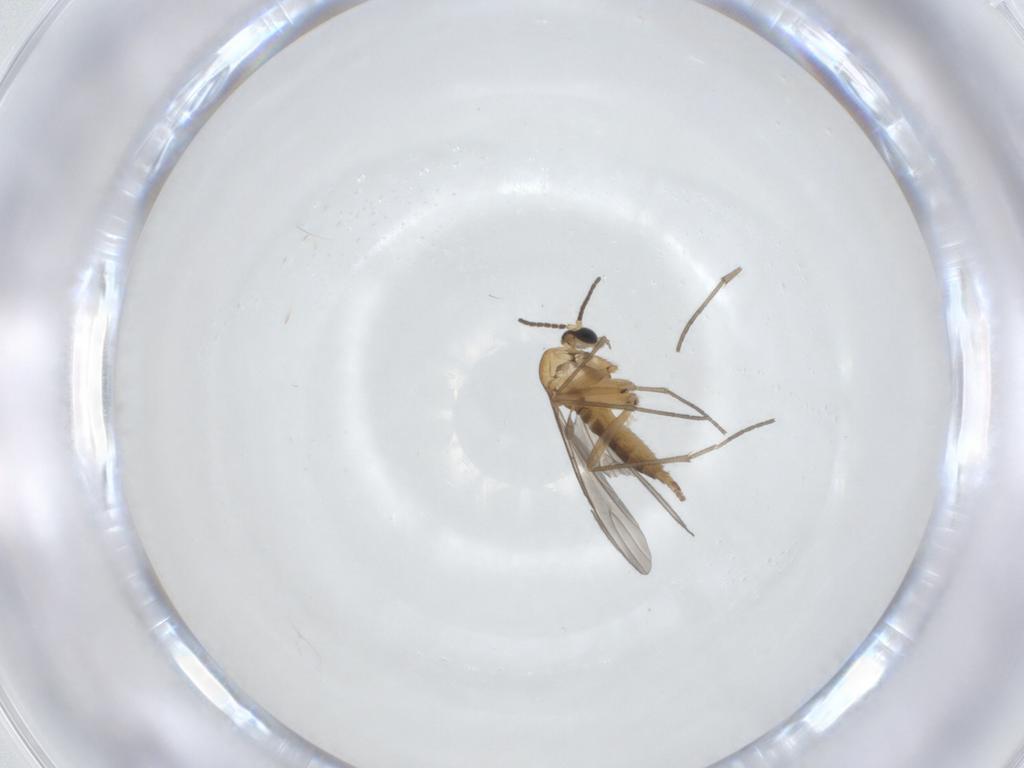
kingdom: Animalia
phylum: Arthropoda
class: Insecta
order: Diptera
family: Sciaridae
